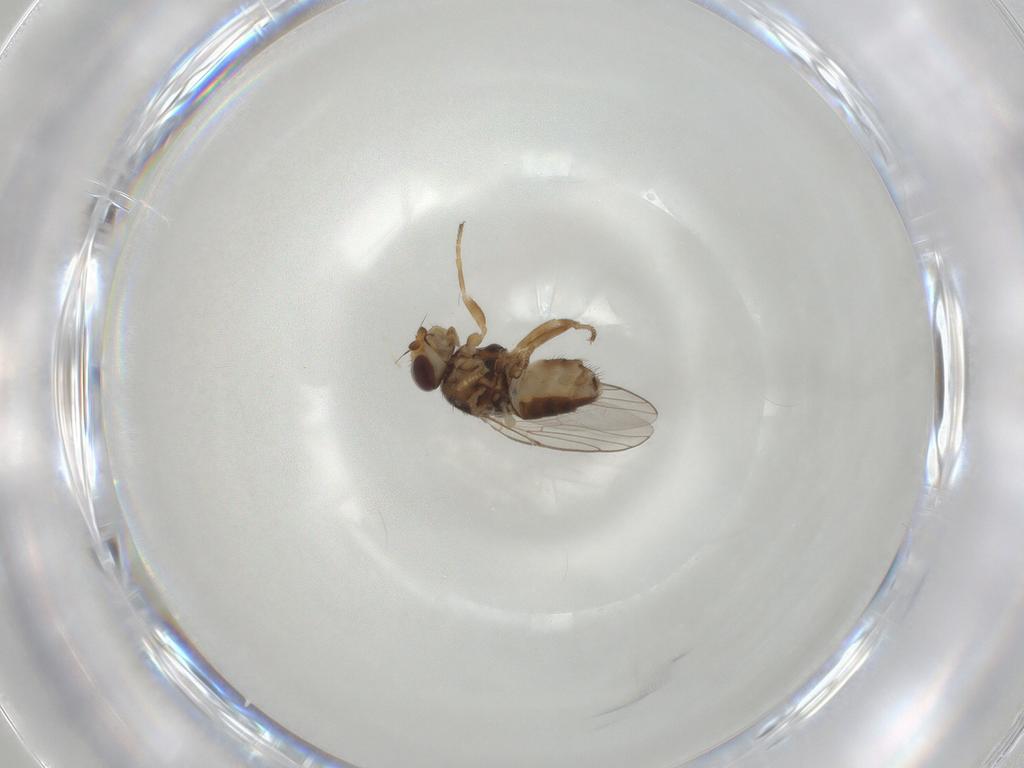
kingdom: Animalia
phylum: Arthropoda
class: Insecta
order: Diptera
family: Chloropidae
